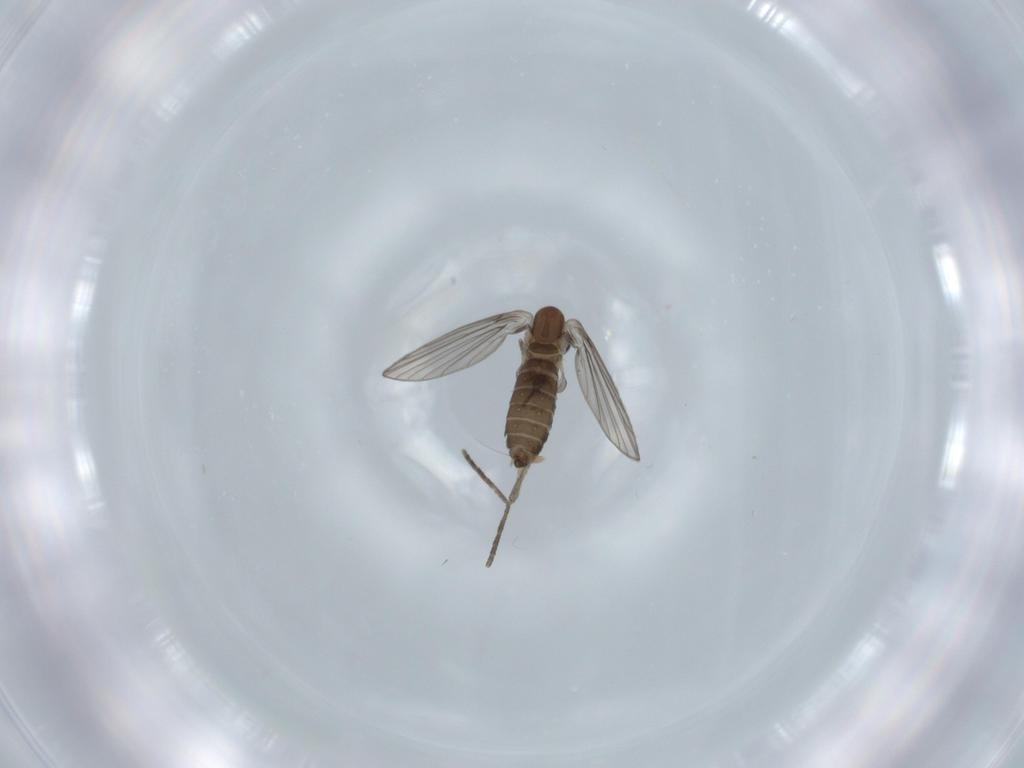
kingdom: Animalia
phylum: Arthropoda
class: Insecta
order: Diptera
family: Psychodidae
